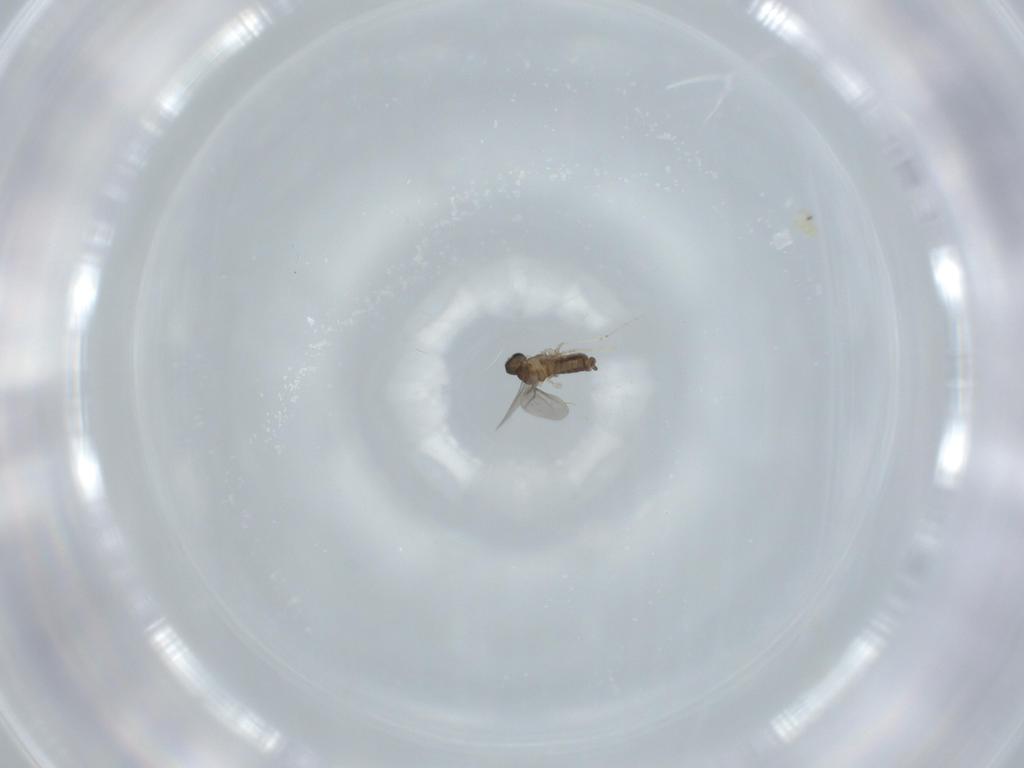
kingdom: Animalia
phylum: Arthropoda
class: Insecta
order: Diptera
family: Cecidomyiidae
